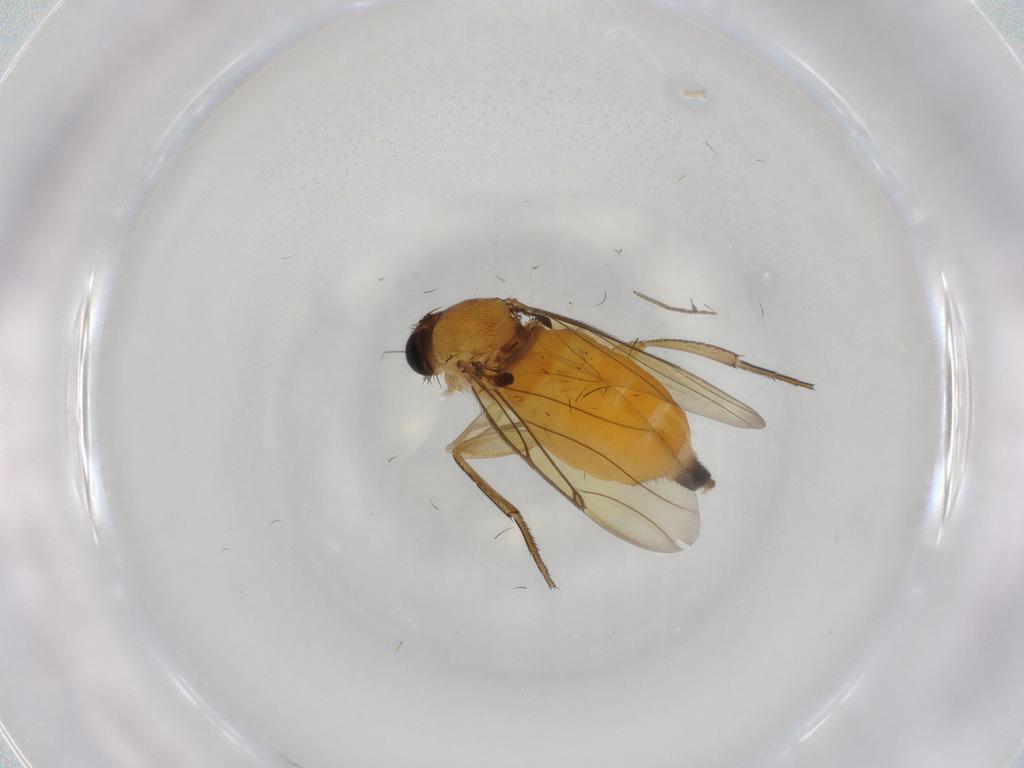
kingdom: Animalia
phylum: Arthropoda
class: Insecta
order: Diptera
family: Chironomidae
